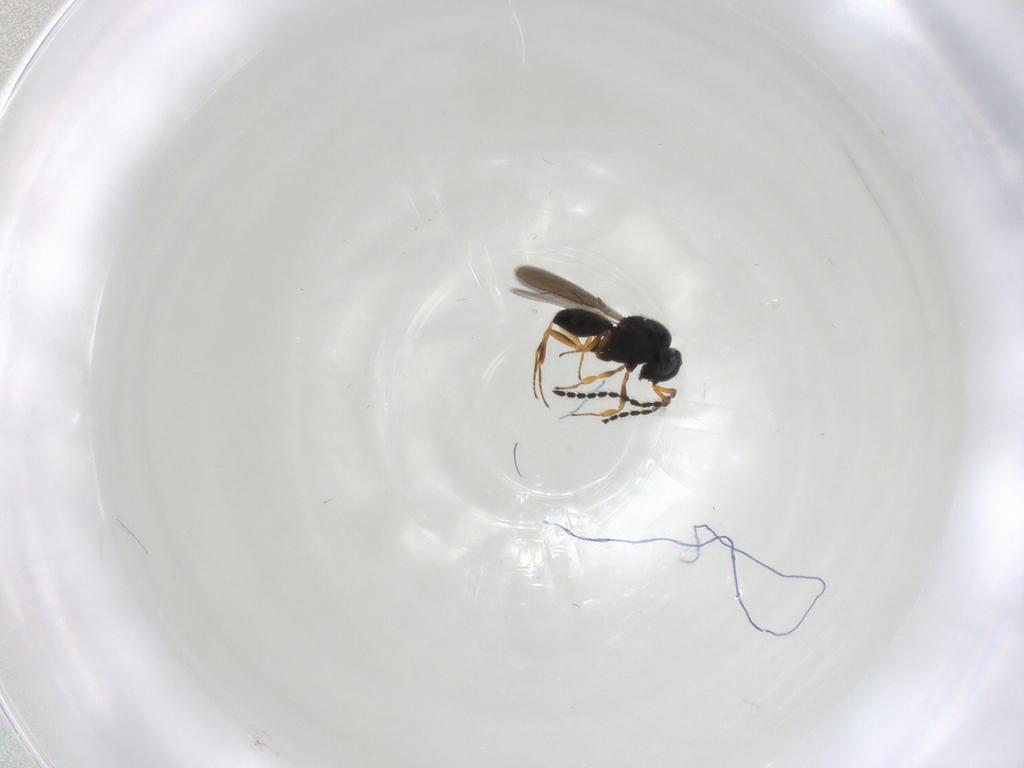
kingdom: Animalia
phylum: Arthropoda
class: Insecta
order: Hymenoptera
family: Scelionidae
